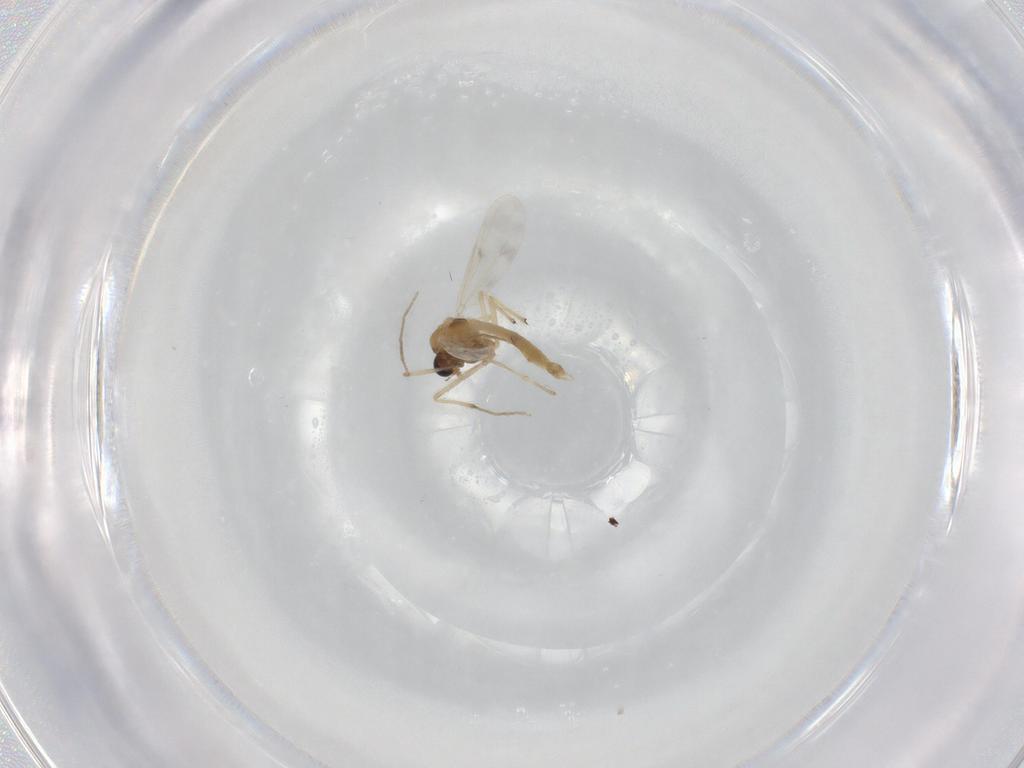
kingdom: Animalia
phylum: Arthropoda
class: Insecta
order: Diptera
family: Chironomidae
